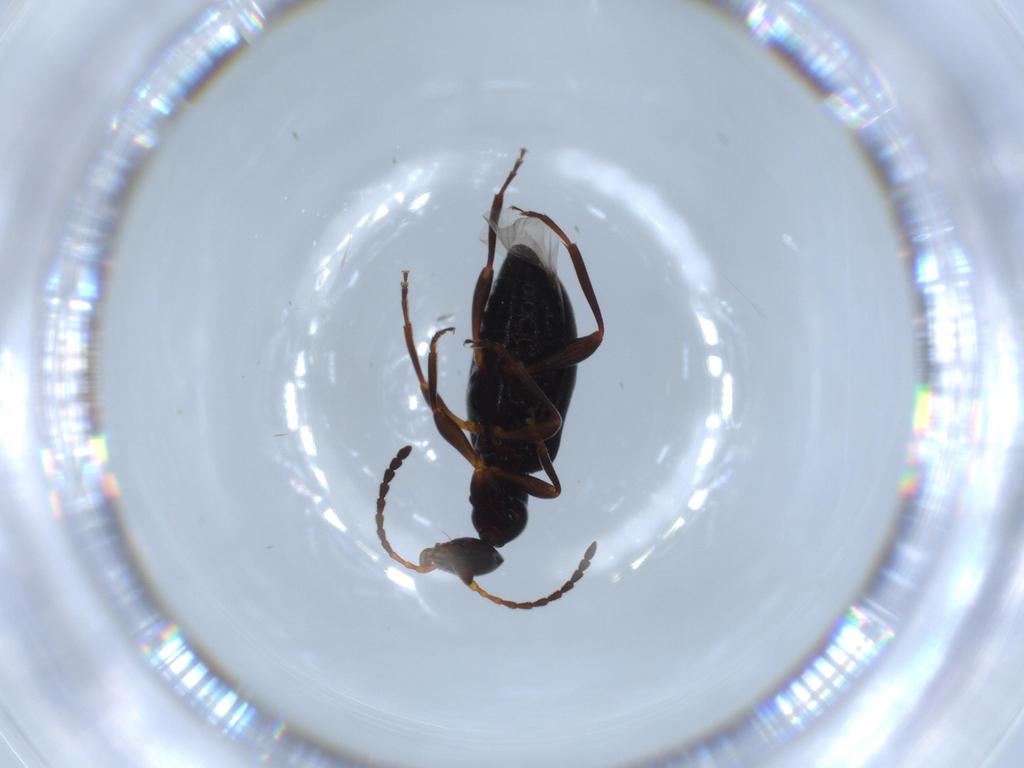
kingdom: Animalia
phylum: Arthropoda
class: Insecta
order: Coleoptera
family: Anthicidae
